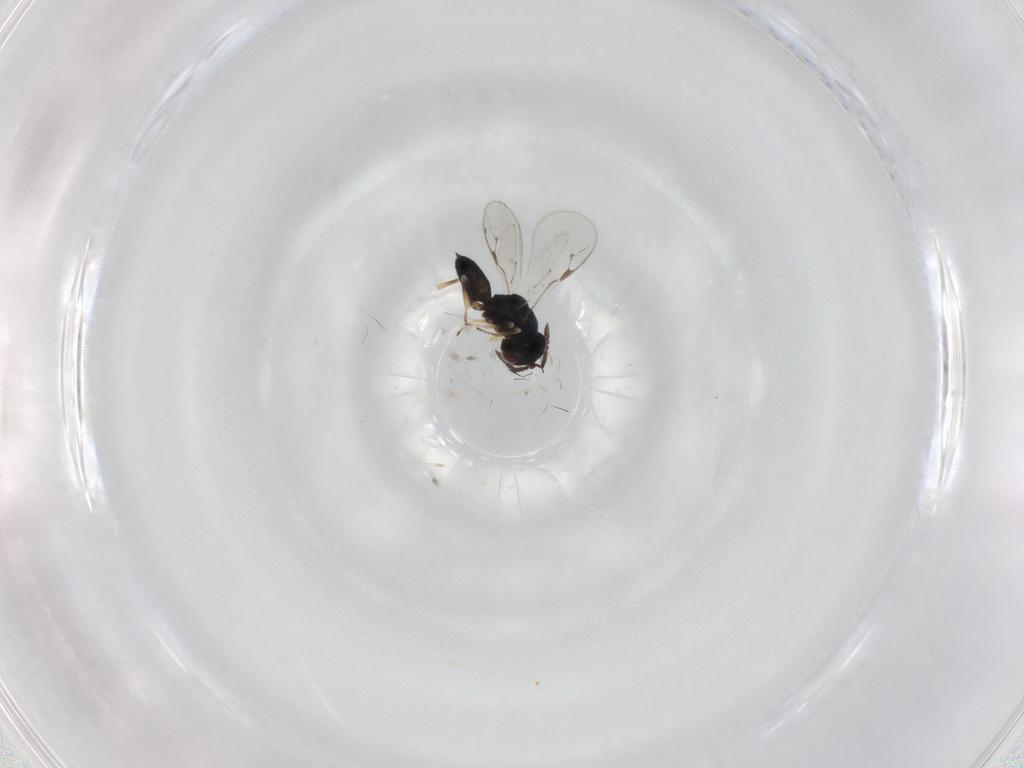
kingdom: Animalia
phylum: Arthropoda
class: Insecta
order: Hymenoptera
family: Pteromalidae
